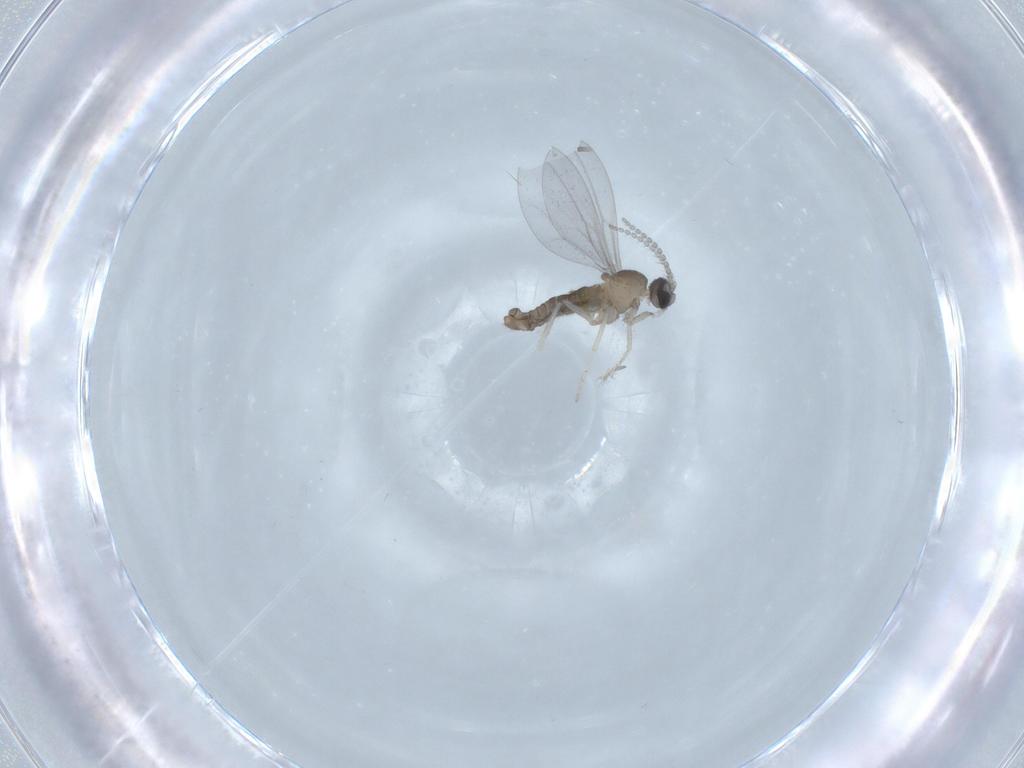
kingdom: Animalia
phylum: Arthropoda
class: Insecta
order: Diptera
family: Cecidomyiidae
